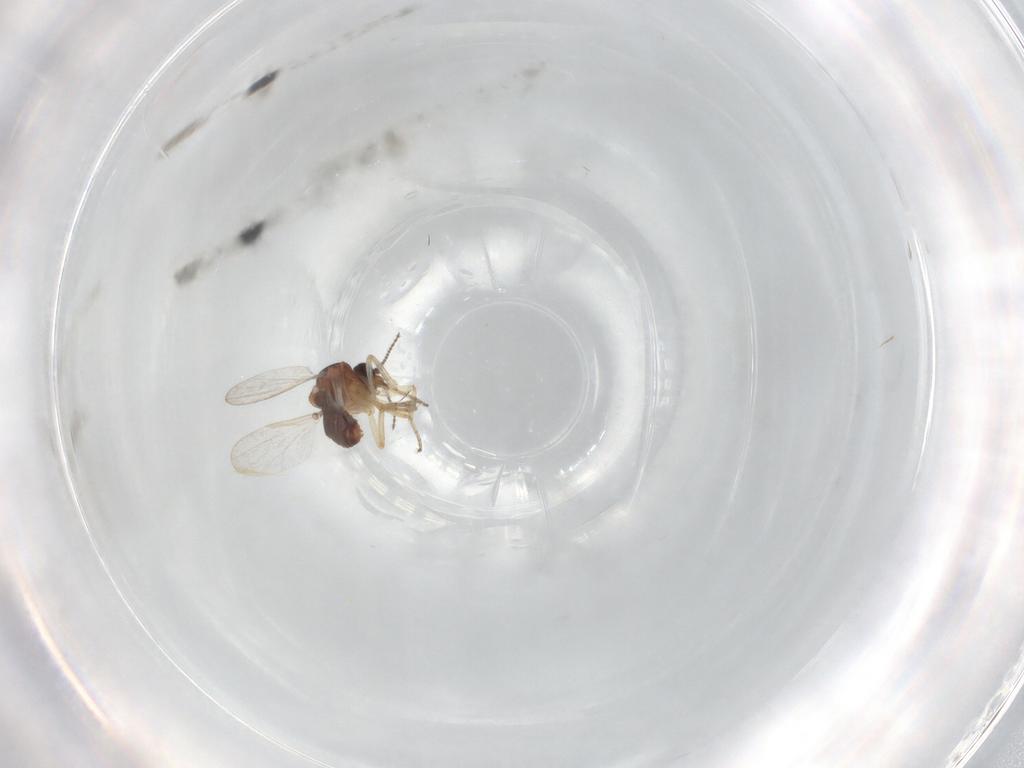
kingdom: Animalia
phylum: Arthropoda
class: Insecta
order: Diptera
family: Ceratopogonidae
